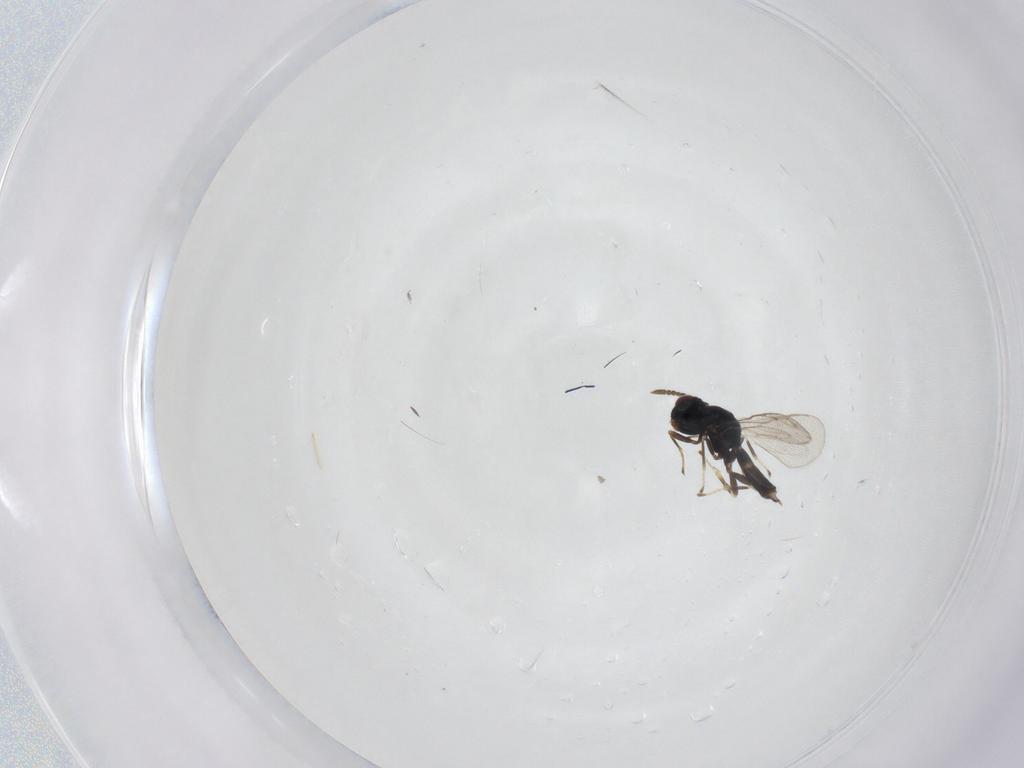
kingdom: Animalia
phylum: Arthropoda
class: Insecta
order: Hymenoptera
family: Pteromalidae
